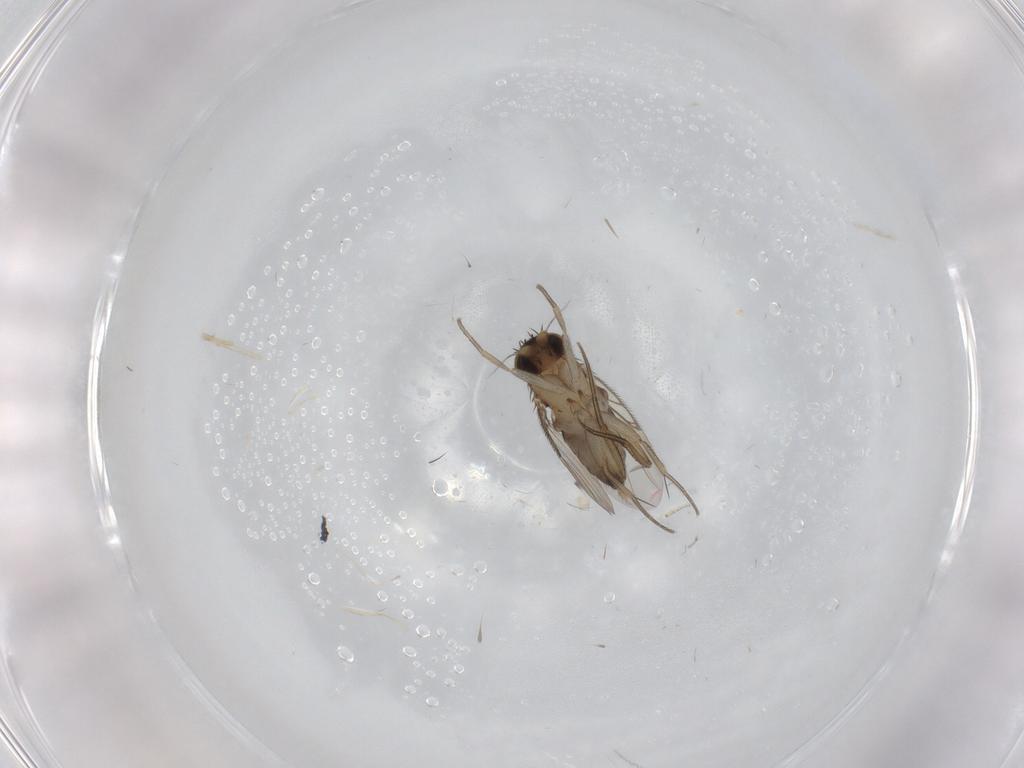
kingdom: Animalia
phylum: Arthropoda
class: Insecta
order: Diptera
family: Phoridae
